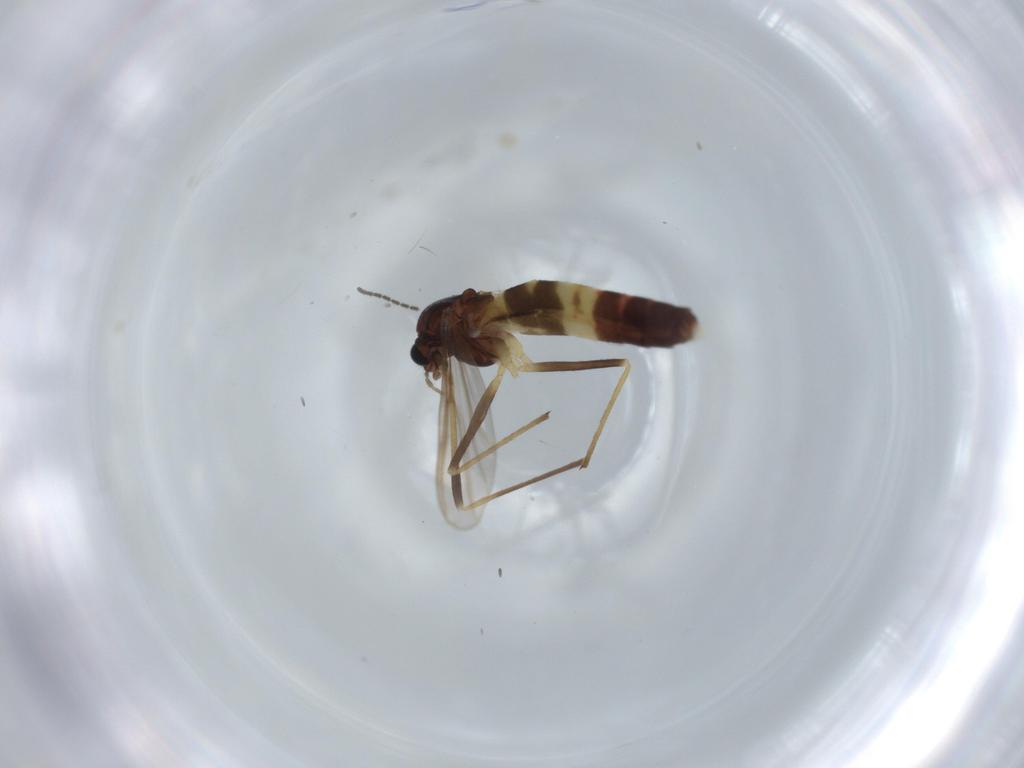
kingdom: Animalia
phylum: Arthropoda
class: Insecta
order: Diptera
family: Sciaridae
